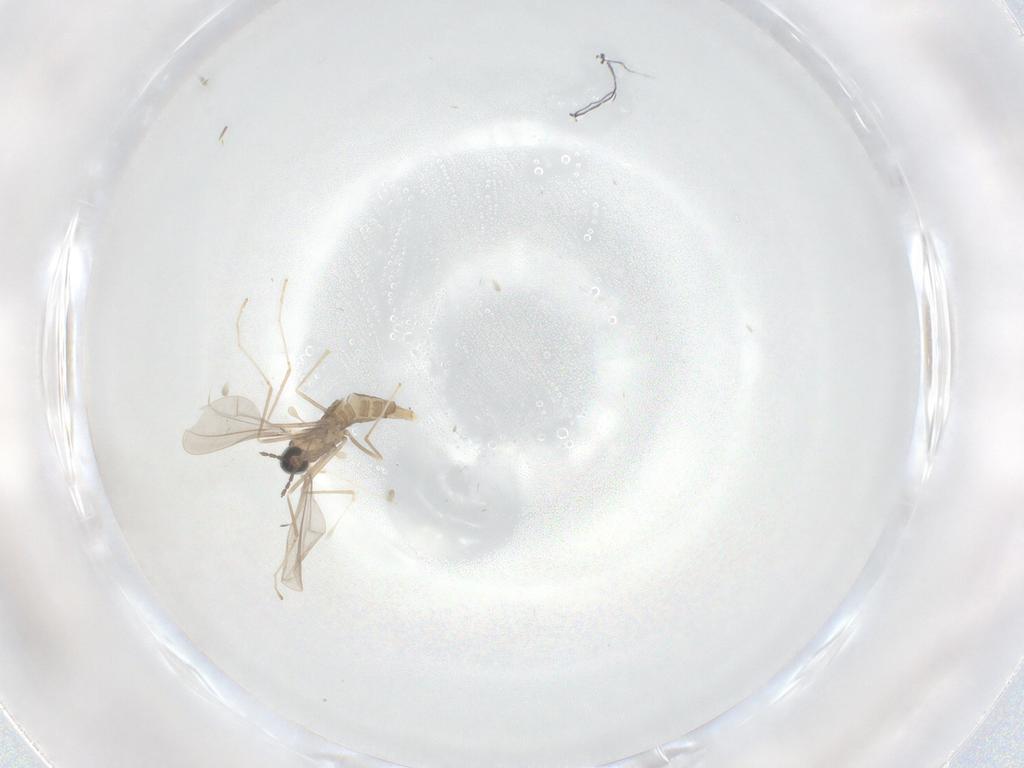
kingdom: Animalia
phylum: Arthropoda
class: Insecta
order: Diptera
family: Cecidomyiidae
